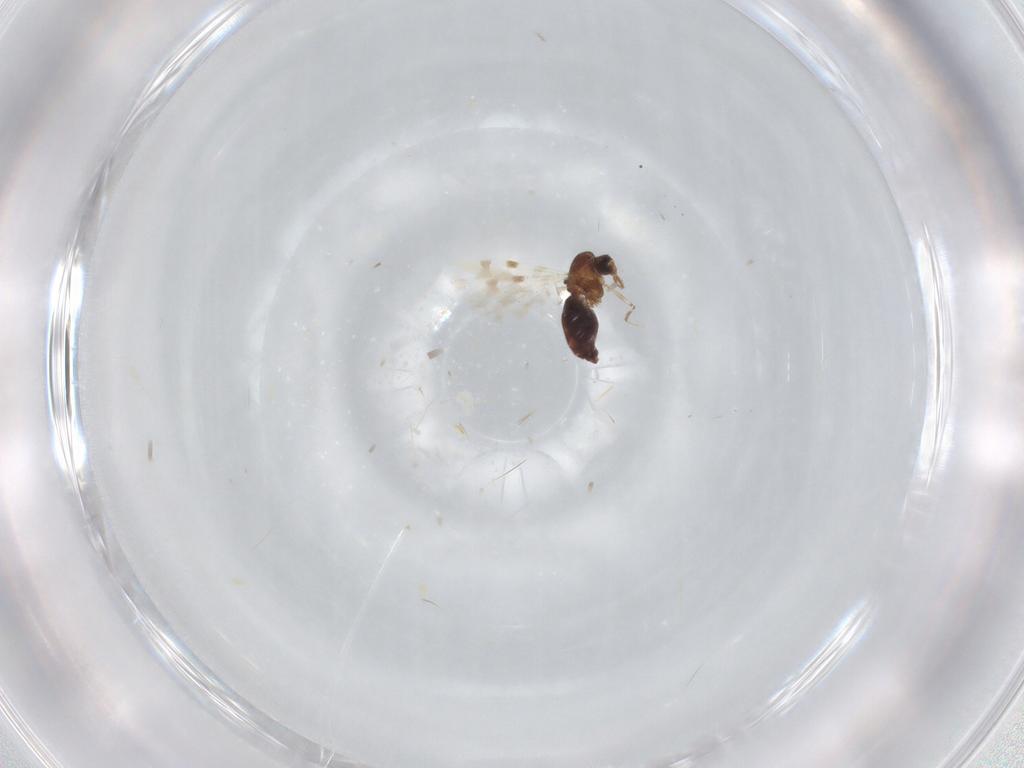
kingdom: Animalia
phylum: Arthropoda
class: Insecta
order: Diptera
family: Cecidomyiidae
